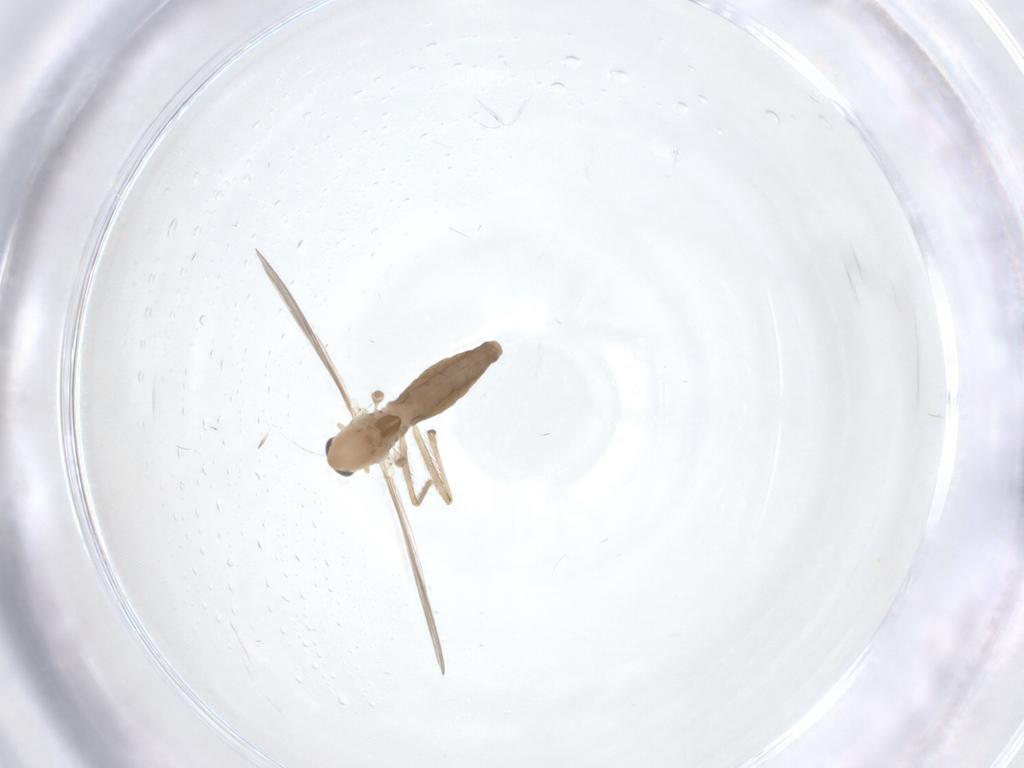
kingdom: Animalia
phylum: Arthropoda
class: Insecta
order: Diptera
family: Chironomidae
